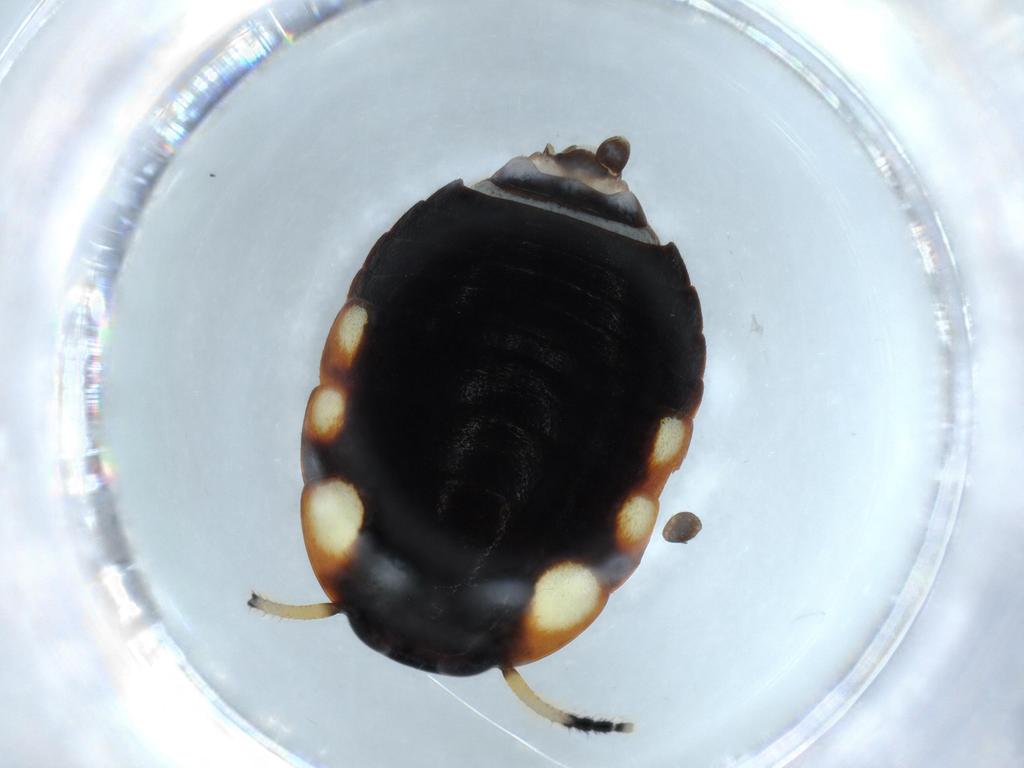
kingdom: Animalia
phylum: Arthropoda
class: Insecta
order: Blattodea
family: Blaberidae
